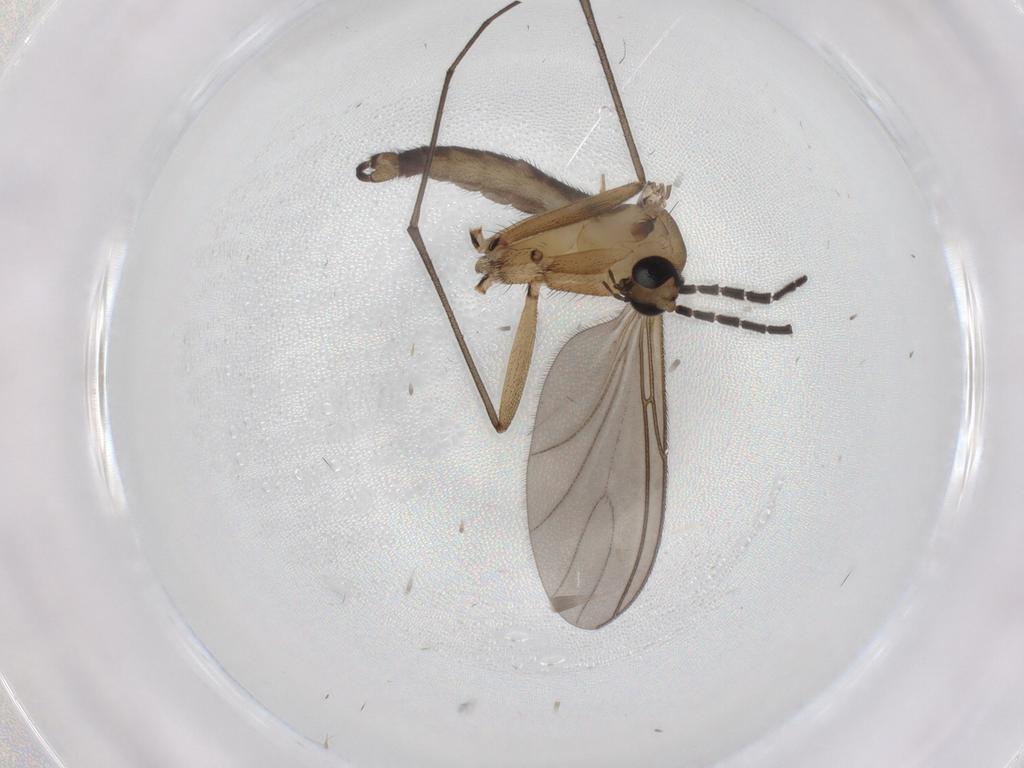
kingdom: Animalia
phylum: Arthropoda
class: Insecta
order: Diptera
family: Sciaridae
